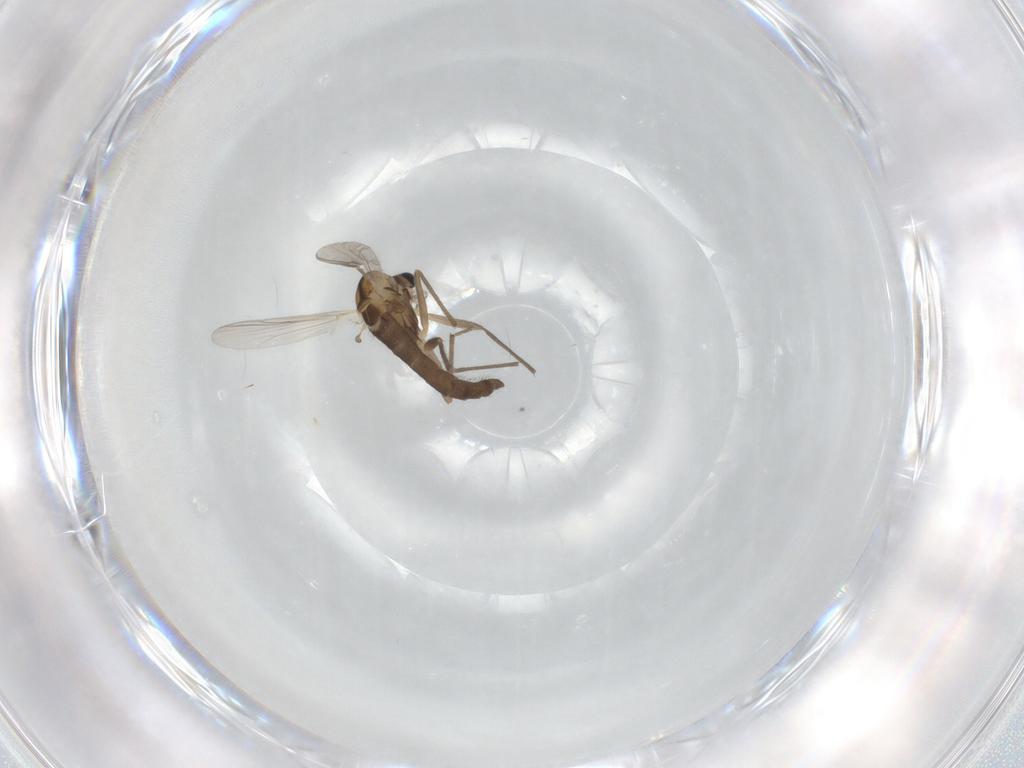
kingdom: Animalia
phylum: Arthropoda
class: Insecta
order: Diptera
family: Chironomidae
